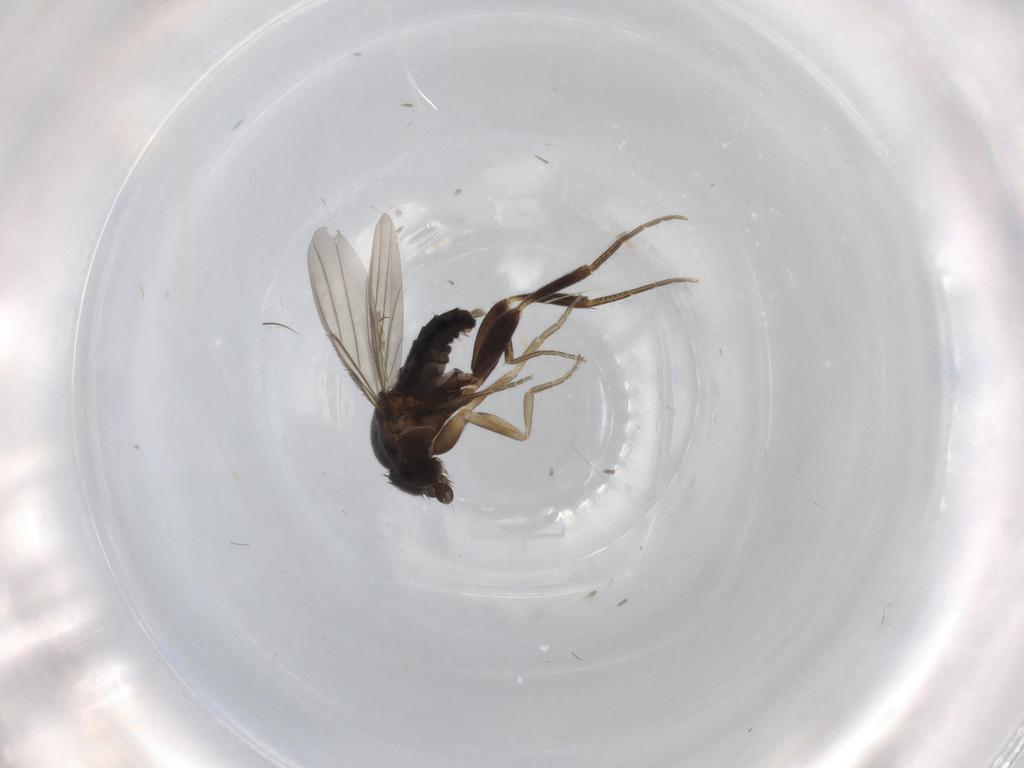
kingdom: Animalia
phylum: Arthropoda
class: Insecta
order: Diptera
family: Phoridae
